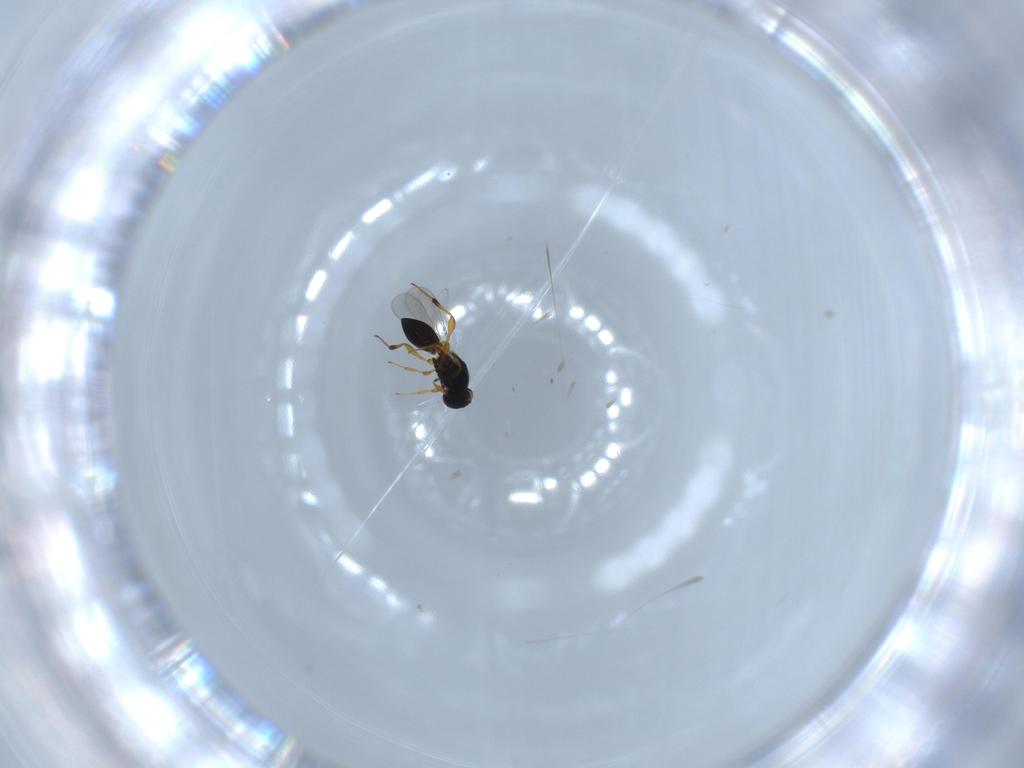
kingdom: Animalia
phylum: Arthropoda
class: Insecta
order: Hymenoptera
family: Platygastridae
